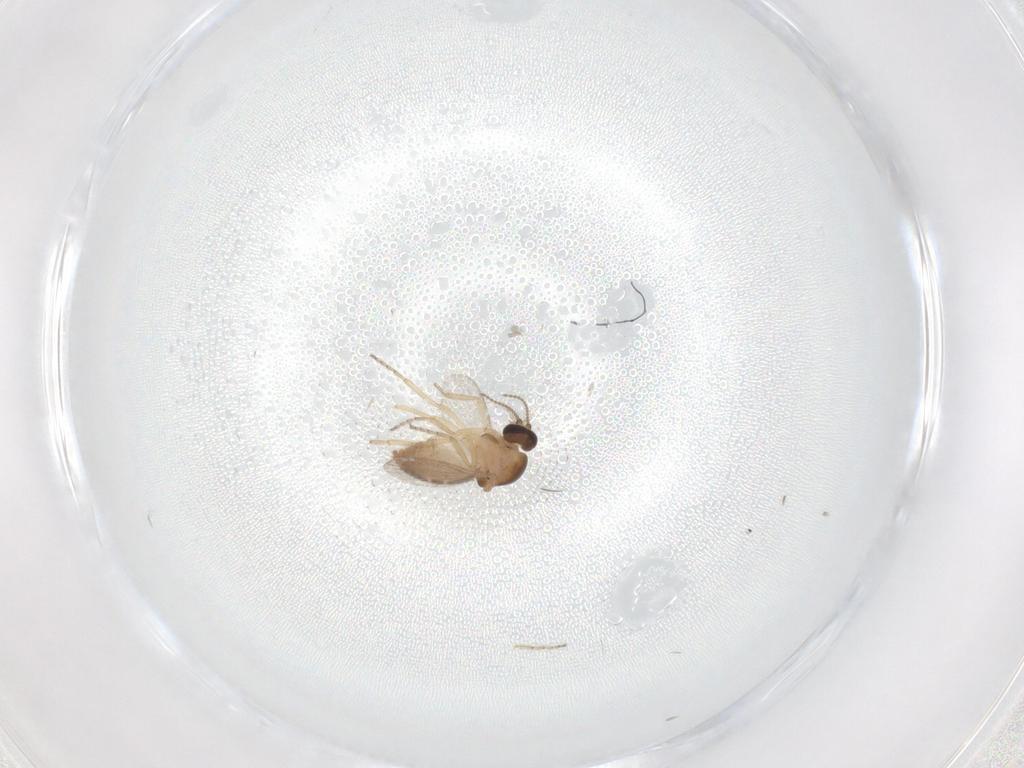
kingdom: Animalia
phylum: Arthropoda
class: Insecta
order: Diptera
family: Ceratopogonidae
